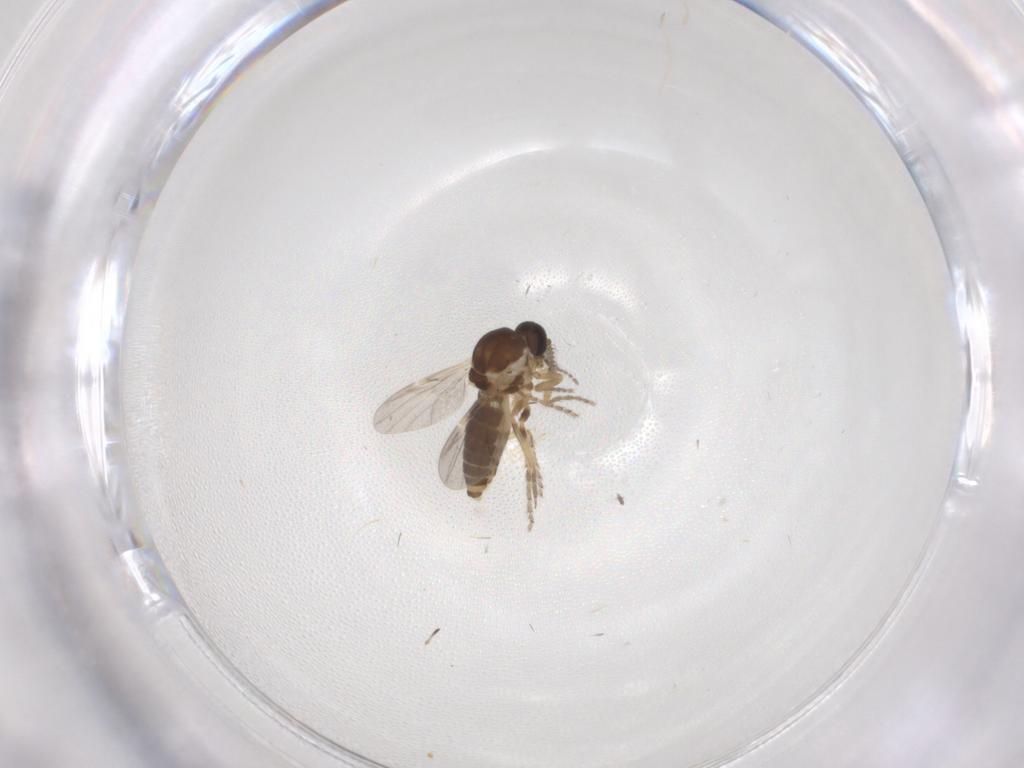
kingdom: Animalia
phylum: Arthropoda
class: Insecta
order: Diptera
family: Ceratopogonidae
